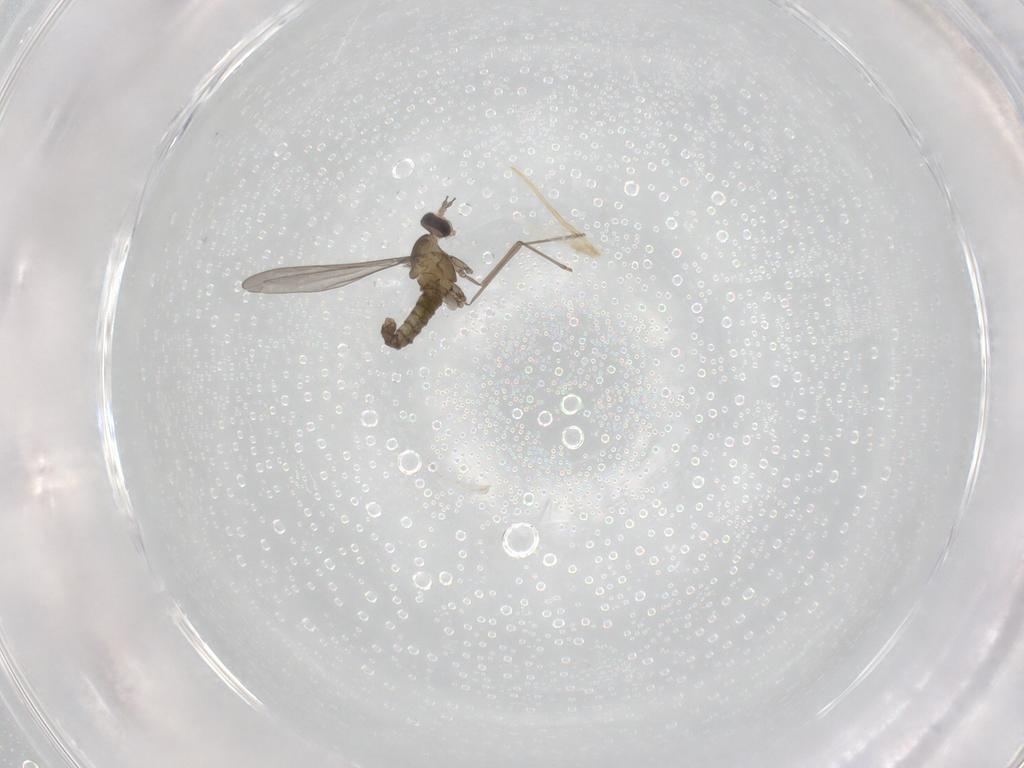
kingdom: Animalia
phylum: Arthropoda
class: Insecta
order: Diptera
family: Cecidomyiidae
